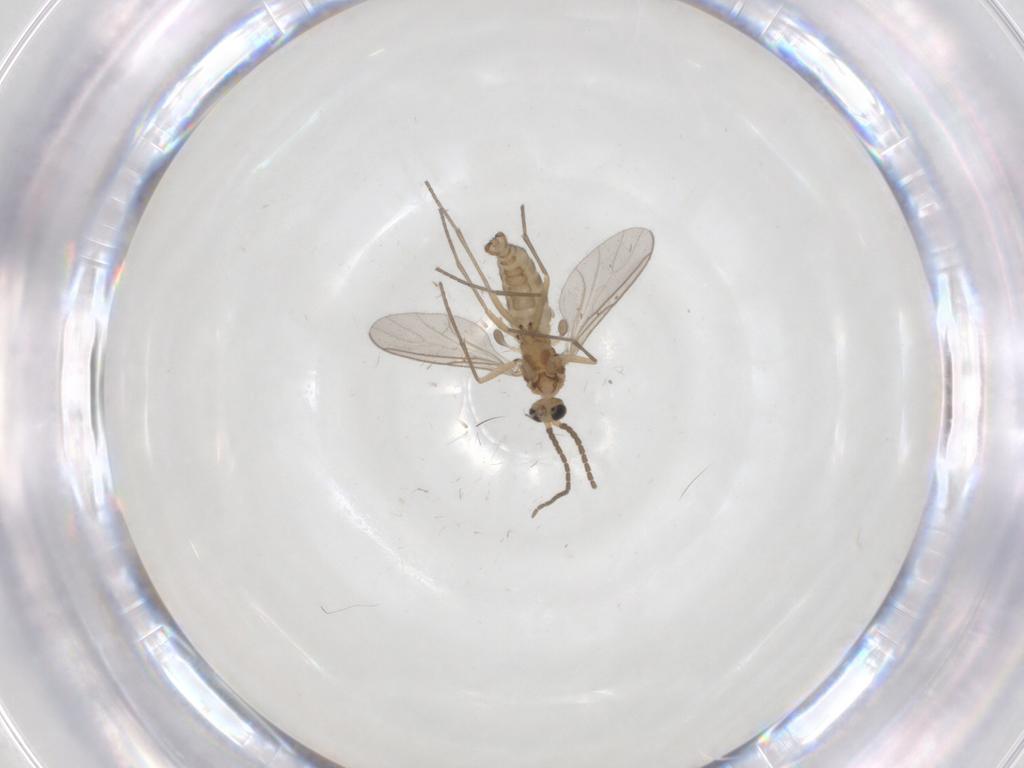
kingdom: Animalia
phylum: Arthropoda
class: Insecta
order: Diptera
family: Sciaridae
